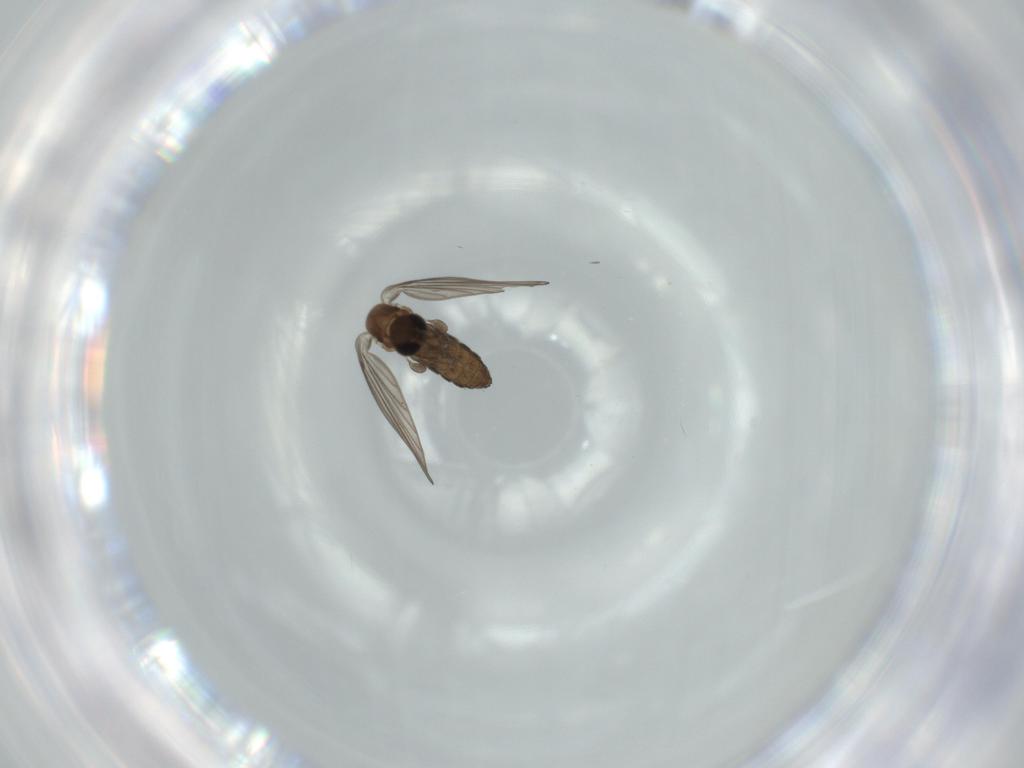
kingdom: Animalia
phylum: Arthropoda
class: Insecta
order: Diptera
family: Psychodidae
